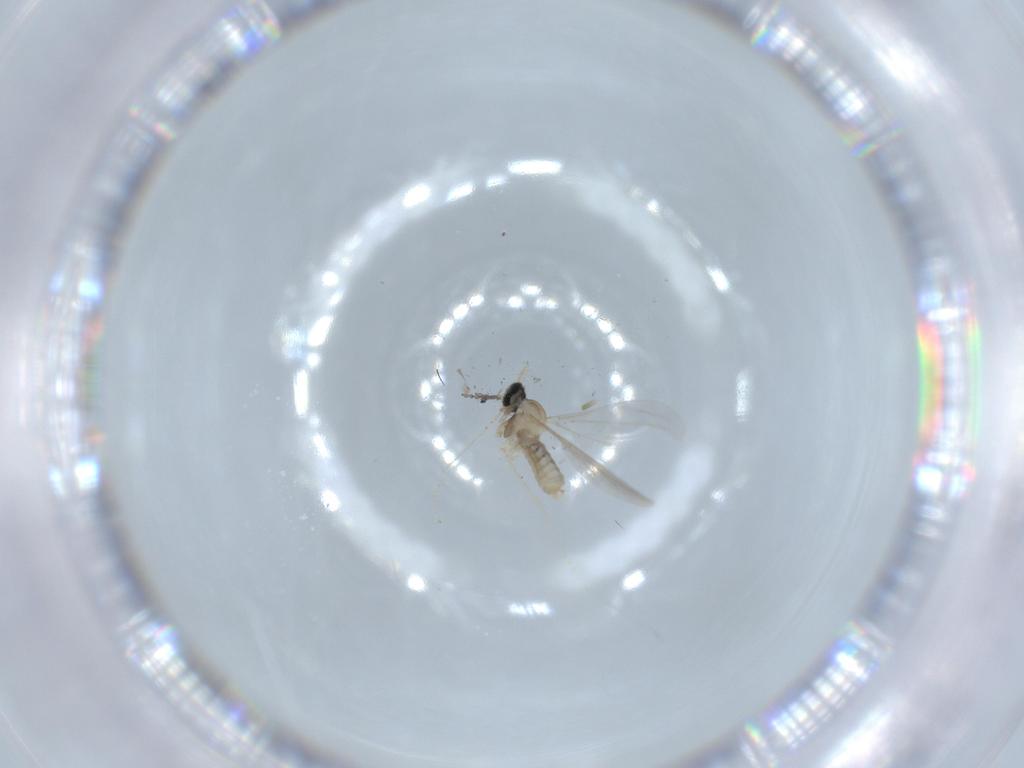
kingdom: Animalia
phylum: Arthropoda
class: Insecta
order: Diptera
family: Cecidomyiidae
